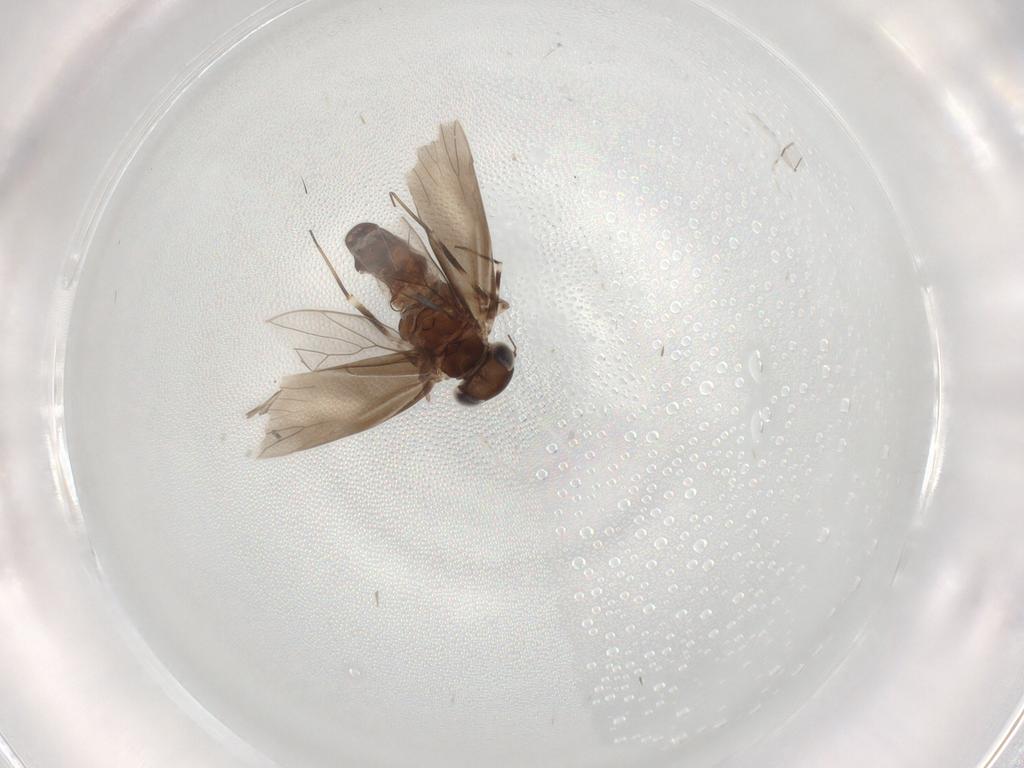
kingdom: Animalia
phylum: Arthropoda
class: Insecta
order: Psocodea
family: Amphientomidae
